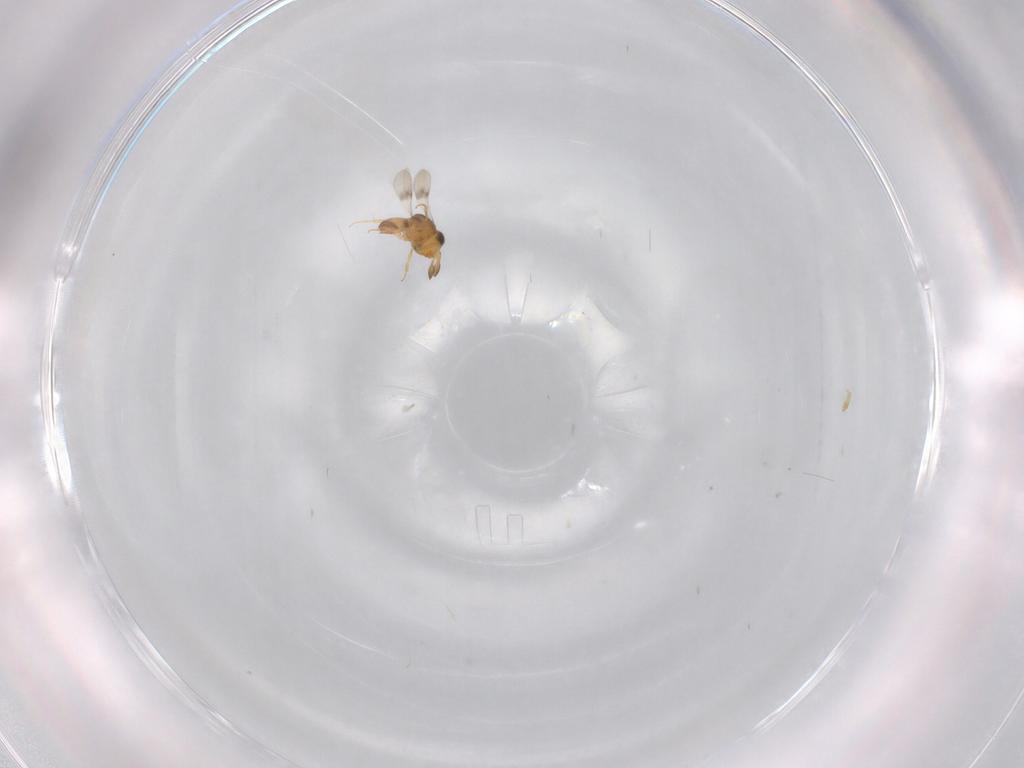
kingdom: Animalia
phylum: Arthropoda
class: Insecta
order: Hymenoptera
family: Scelionidae
